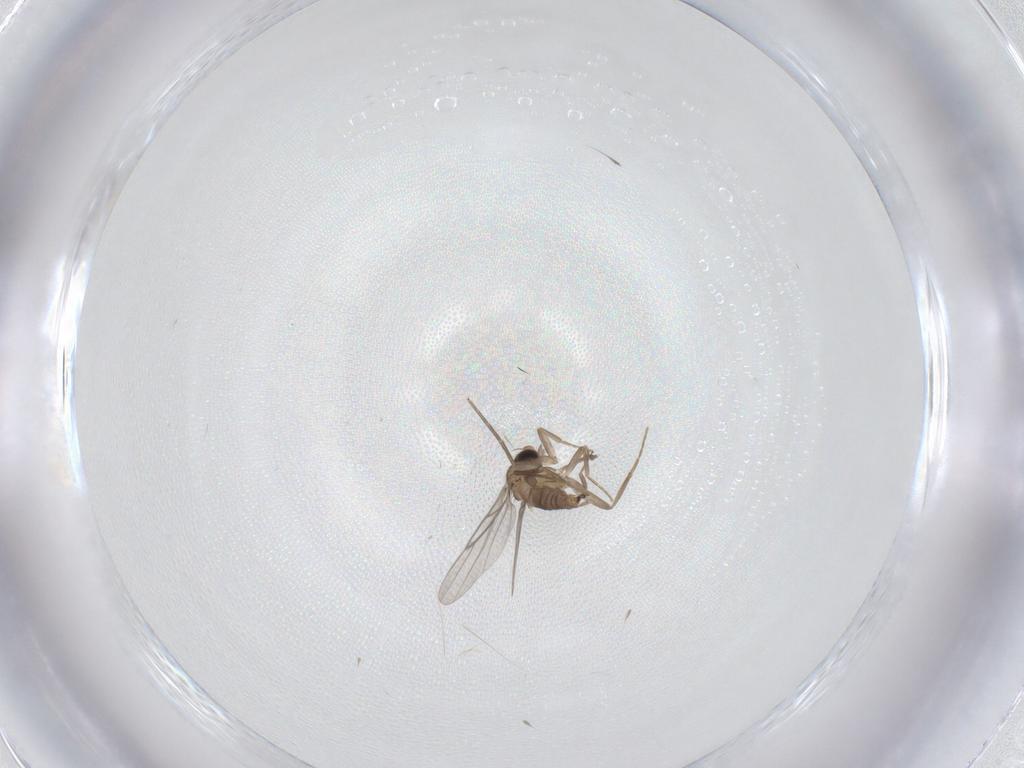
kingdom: Animalia
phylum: Arthropoda
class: Insecta
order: Diptera
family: Mycetophilidae
